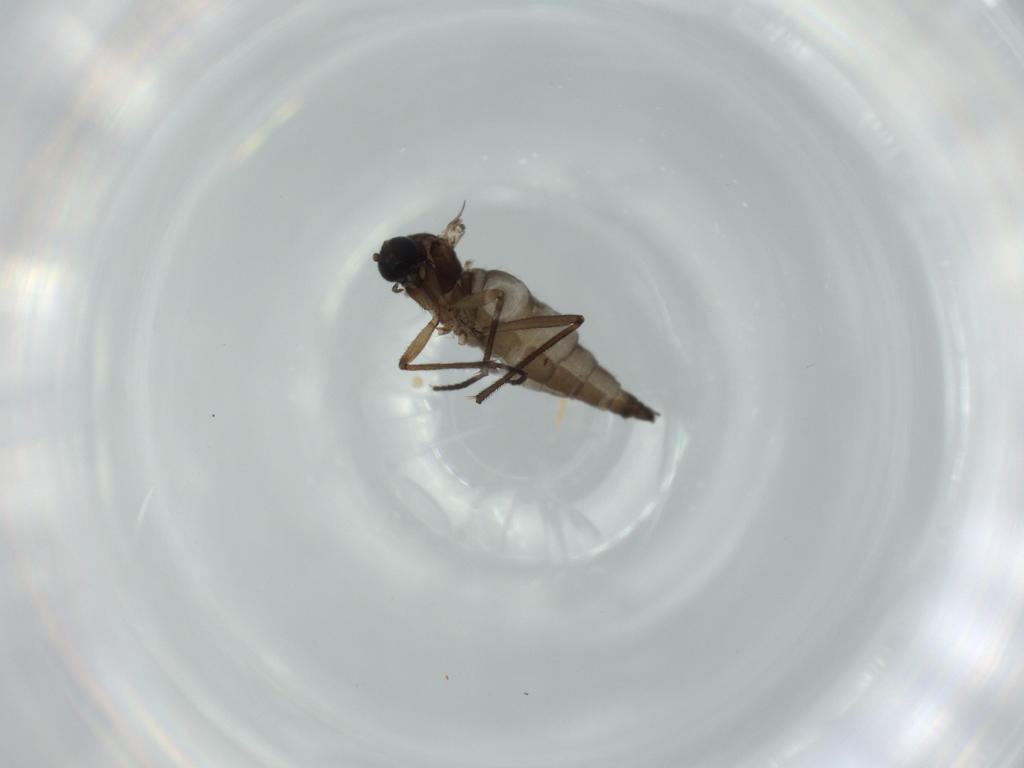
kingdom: Animalia
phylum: Arthropoda
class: Insecta
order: Diptera
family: Sciaridae
